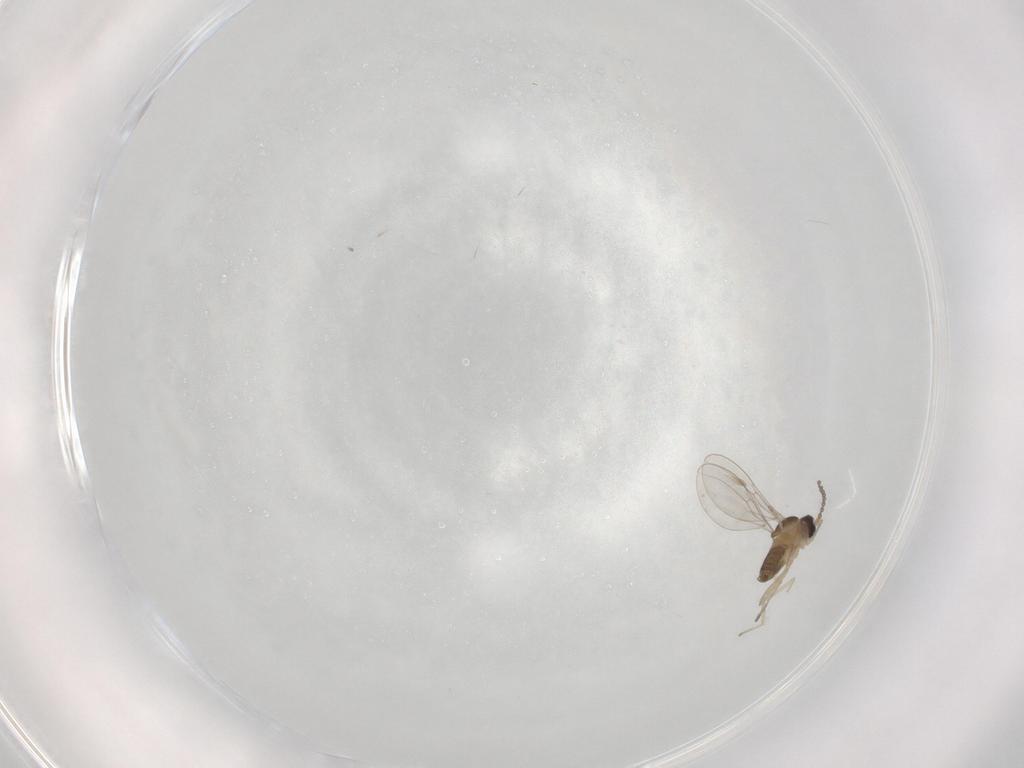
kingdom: Animalia
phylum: Arthropoda
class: Insecta
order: Diptera
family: Cecidomyiidae
